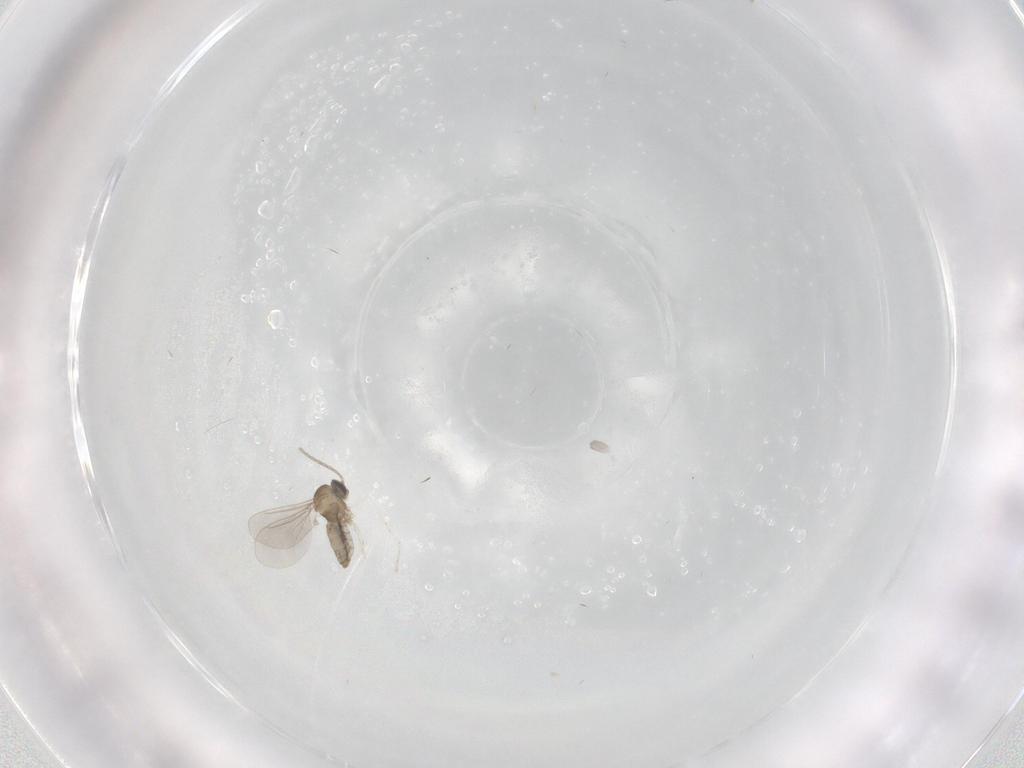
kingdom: Animalia
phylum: Arthropoda
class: Insecta
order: Diptera
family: Cecidomyiidae
